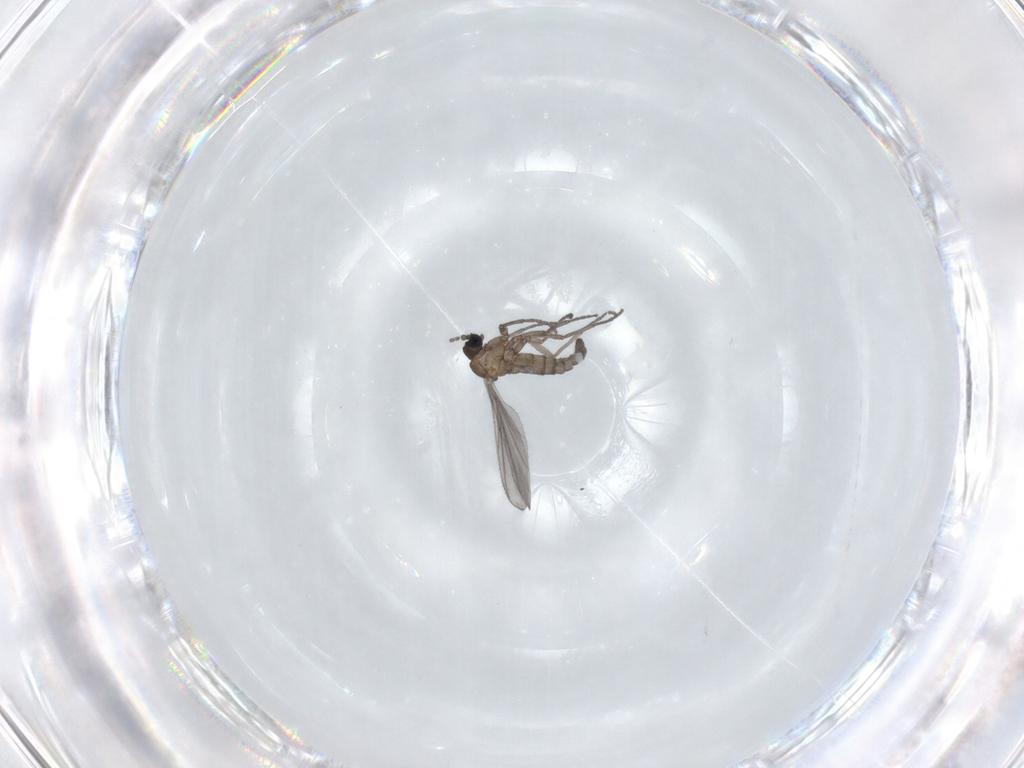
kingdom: Animalia
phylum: Arthropoda
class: Insecta
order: Diptera
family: Sciaridae
